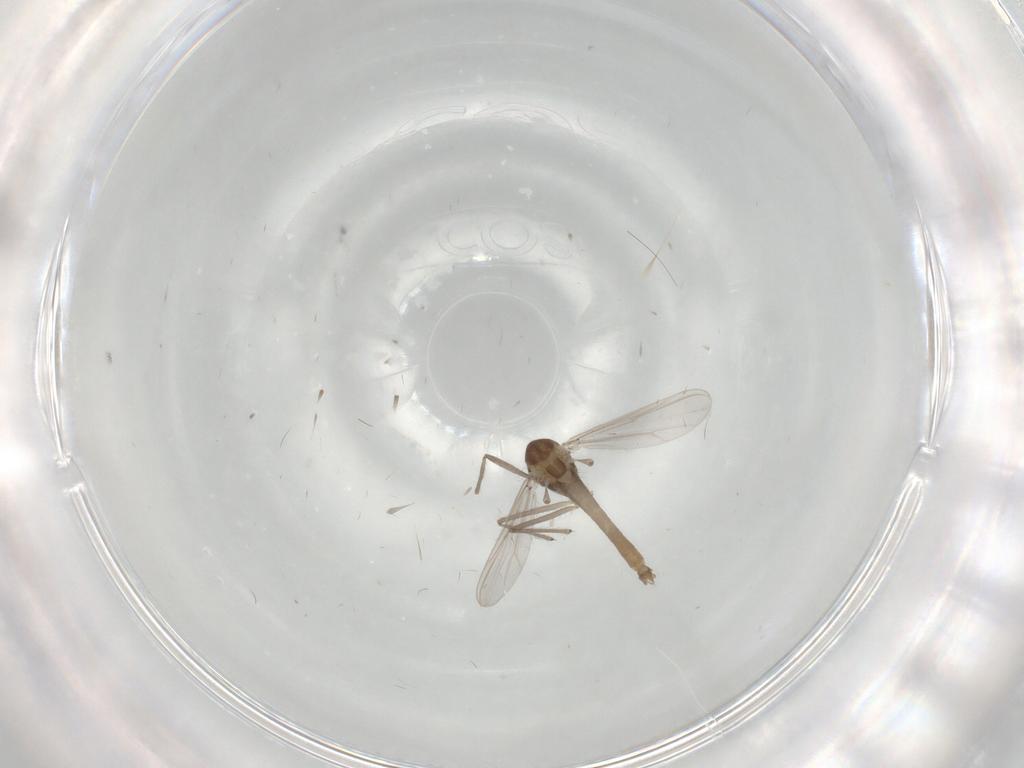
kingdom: Animalia
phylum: Arthropoda
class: Insecta
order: Diptera
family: Chironomidae
